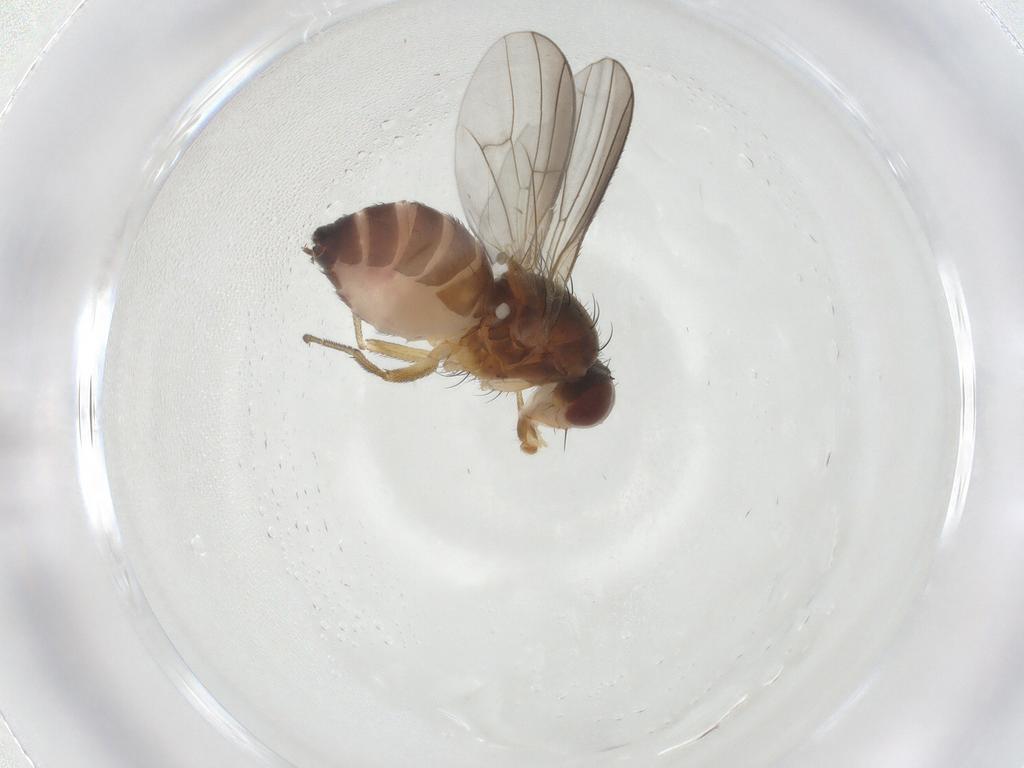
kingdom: Animalia
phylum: Arthropoda
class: Insecta
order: Diptera
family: Heleomyzidae
